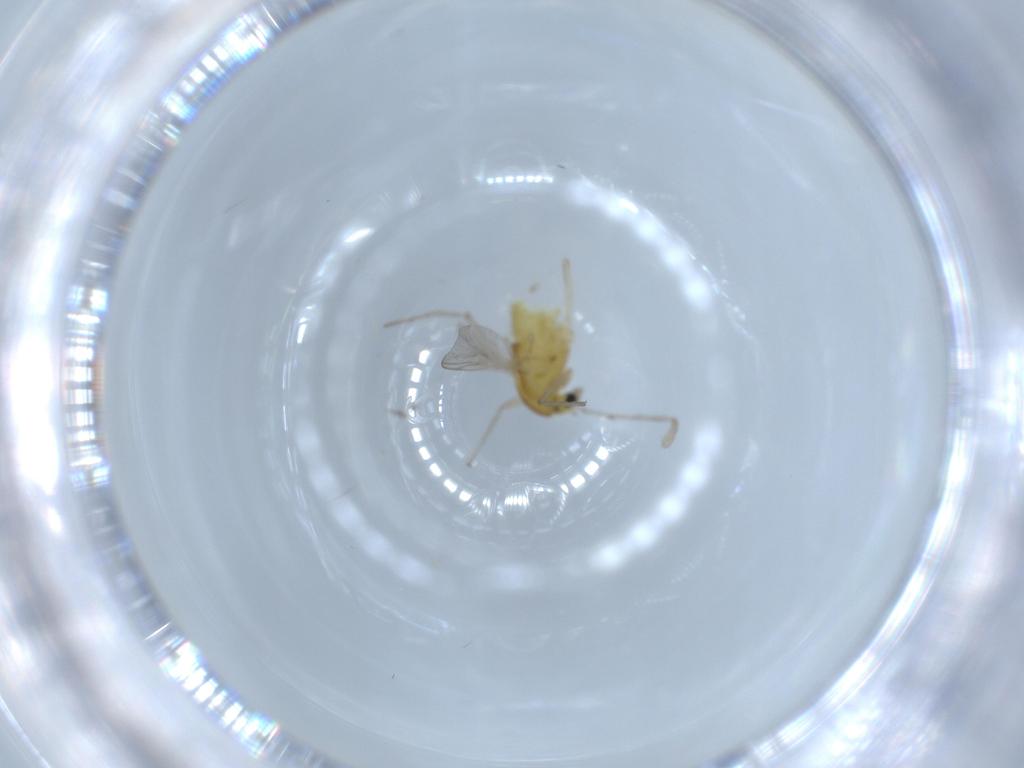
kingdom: Animalia
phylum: Arthropoda
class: Insecta
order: Diptera
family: Chironomidae
